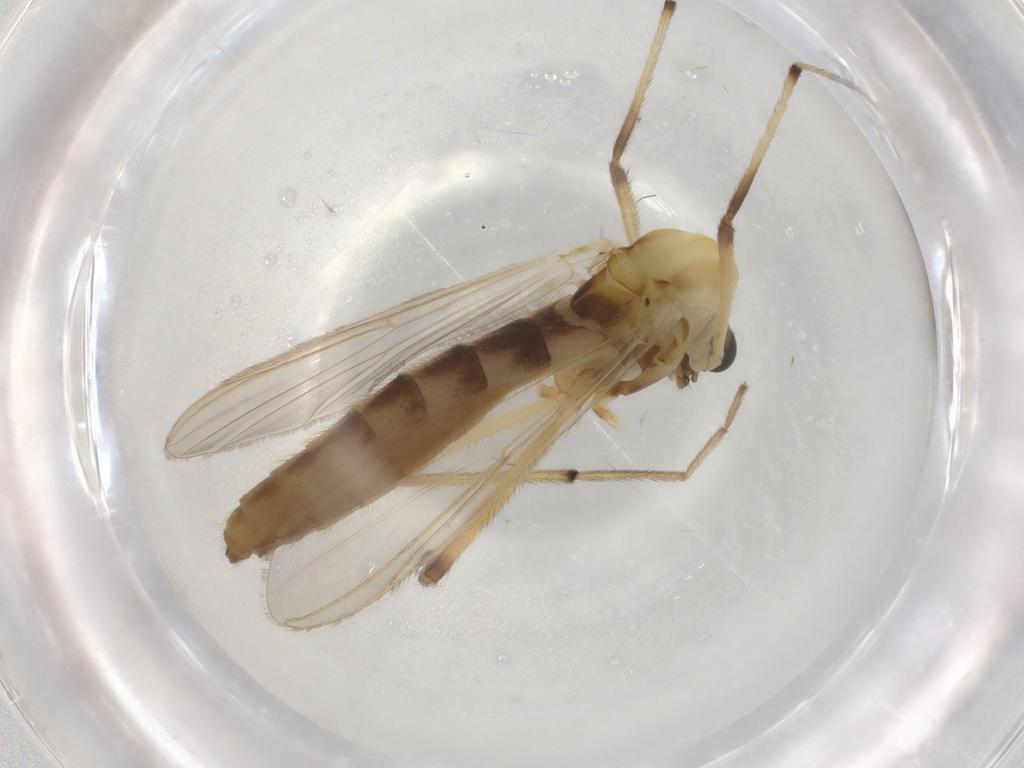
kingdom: Animalia
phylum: Arthropoda
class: Insecta
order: Diptera
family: Chironomidae
